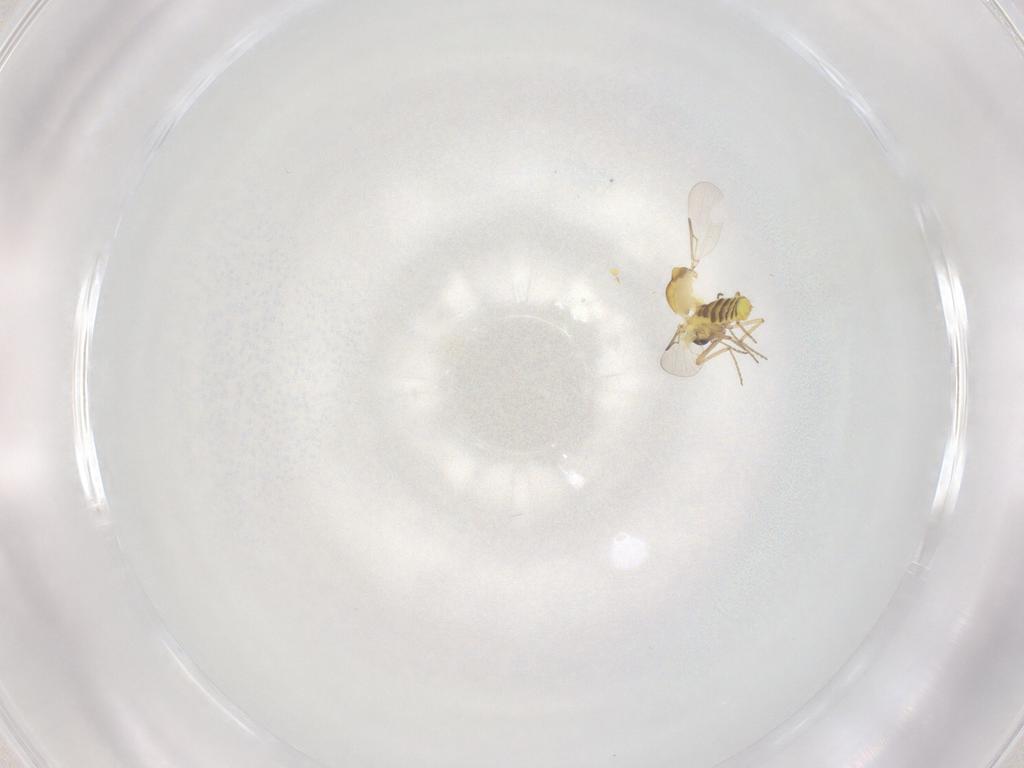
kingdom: Animalia
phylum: Arthropoda
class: Insecta
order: Diptera
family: Ceratopogonidae
